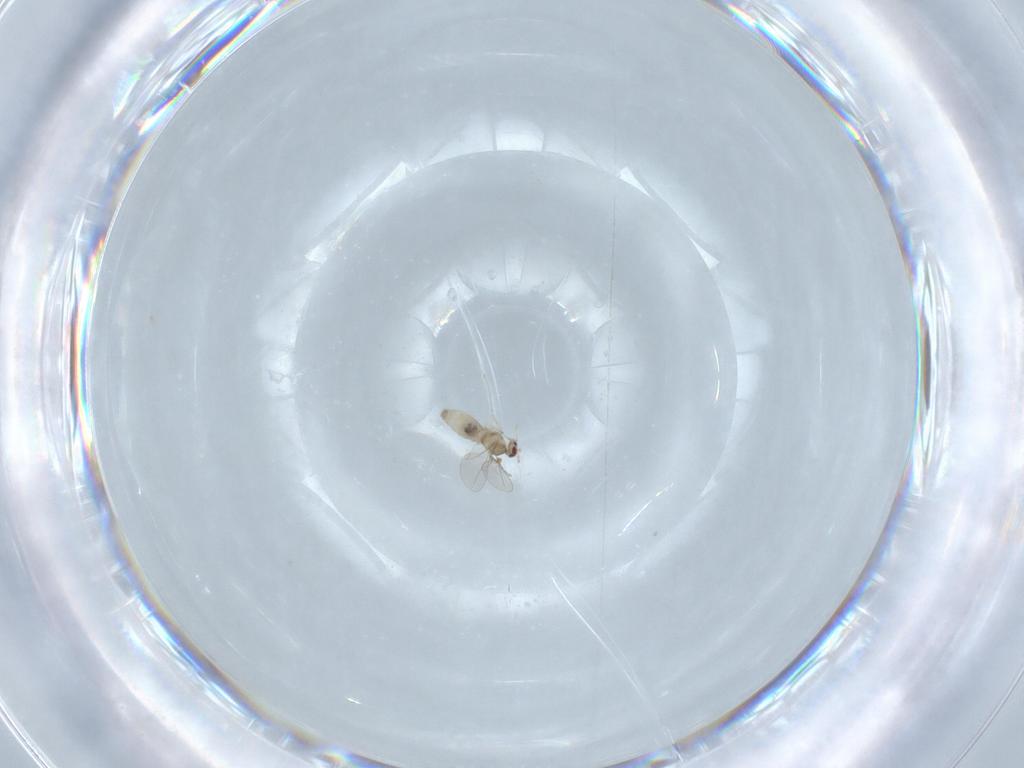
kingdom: Animalia
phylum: Arthropoda
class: Insecta
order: Diptera
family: Cecidomyiidae
